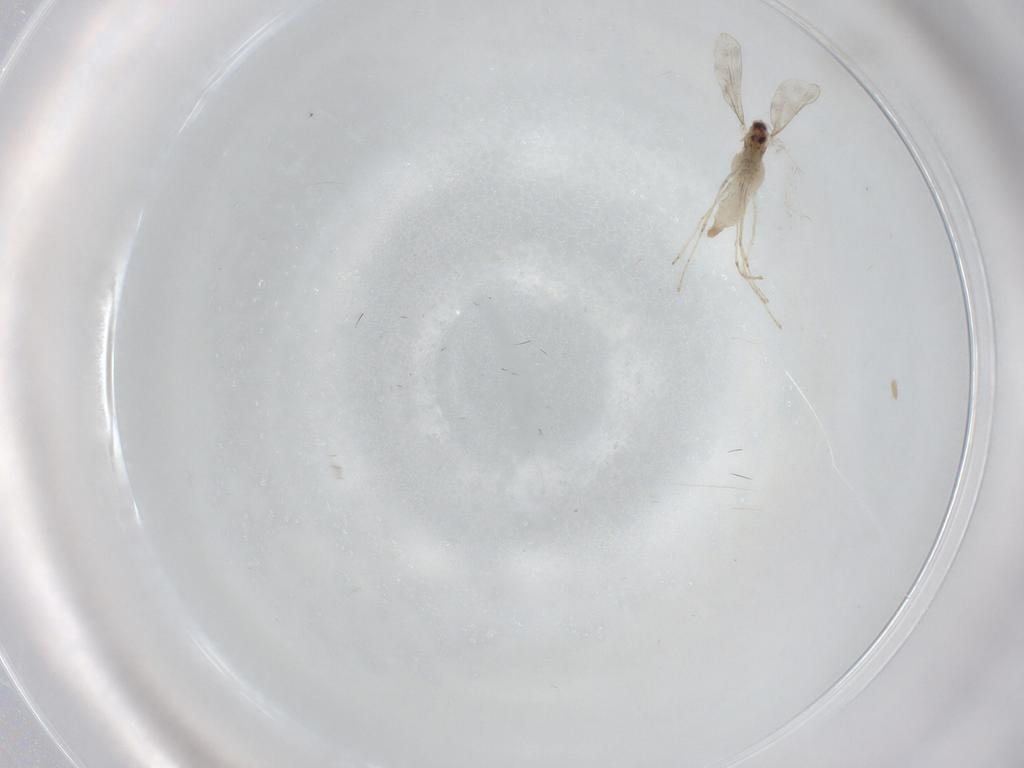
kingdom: Animalia
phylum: Arthropoda
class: Insecta
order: Diptera
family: Cecidomyiidae
